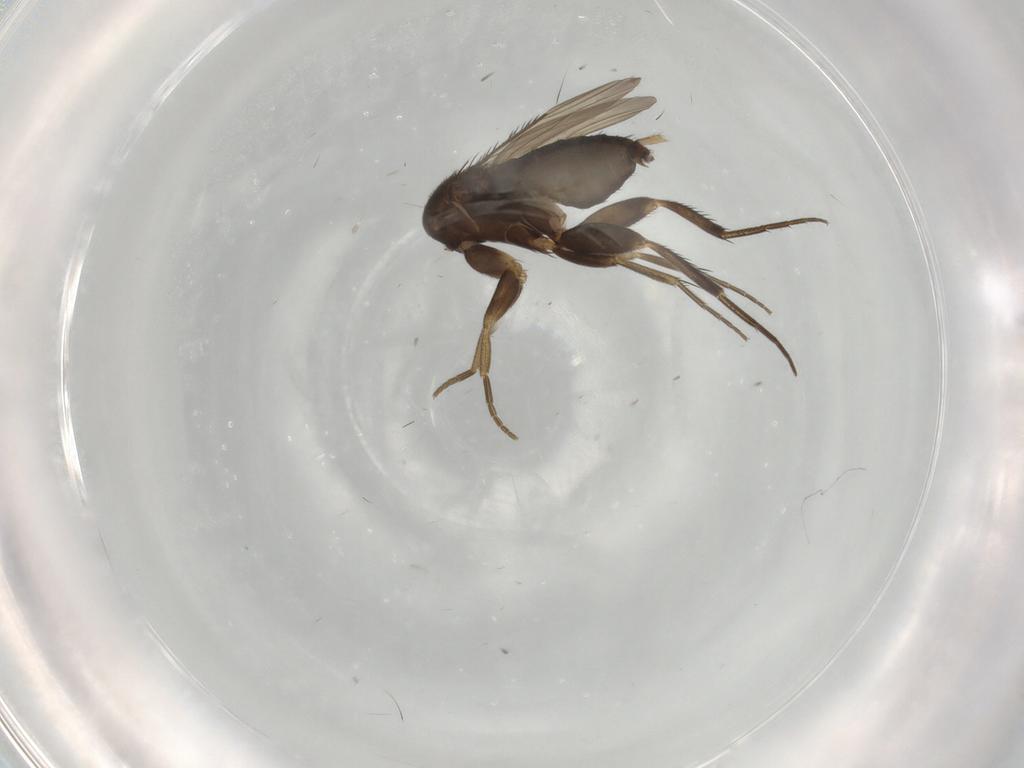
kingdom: Animalia
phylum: Arthropoda
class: Insecta
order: Diptera
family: Phoridae
